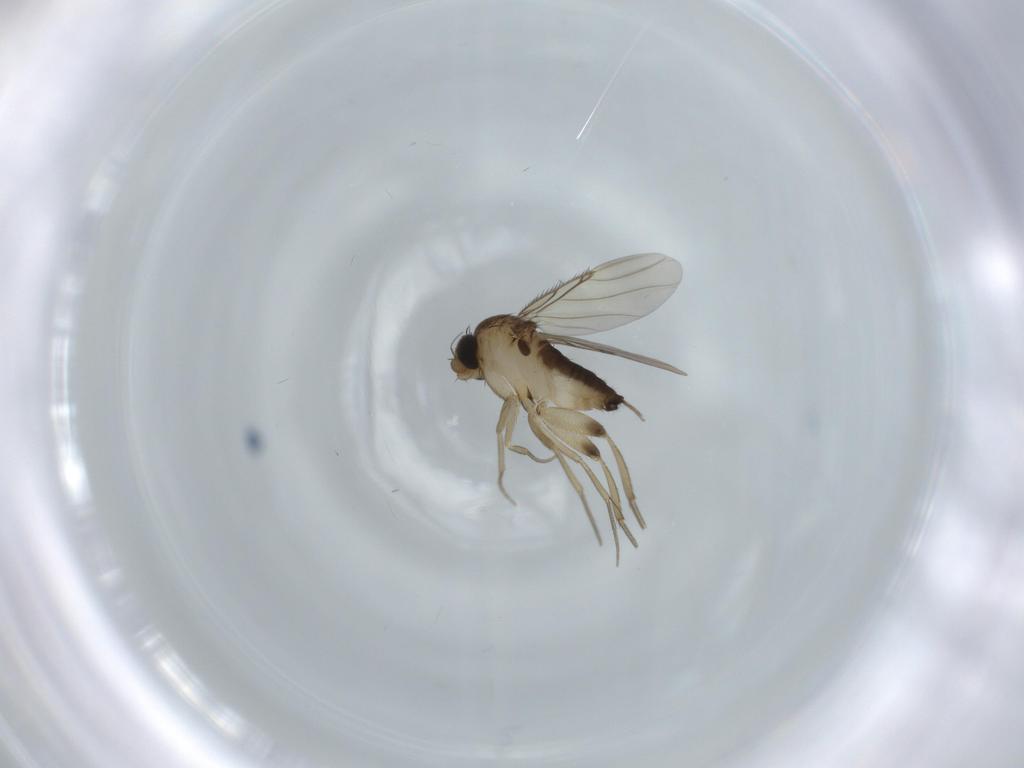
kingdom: Animalia
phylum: Arthropoda
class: Insecta
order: Diptera
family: Phoridae
